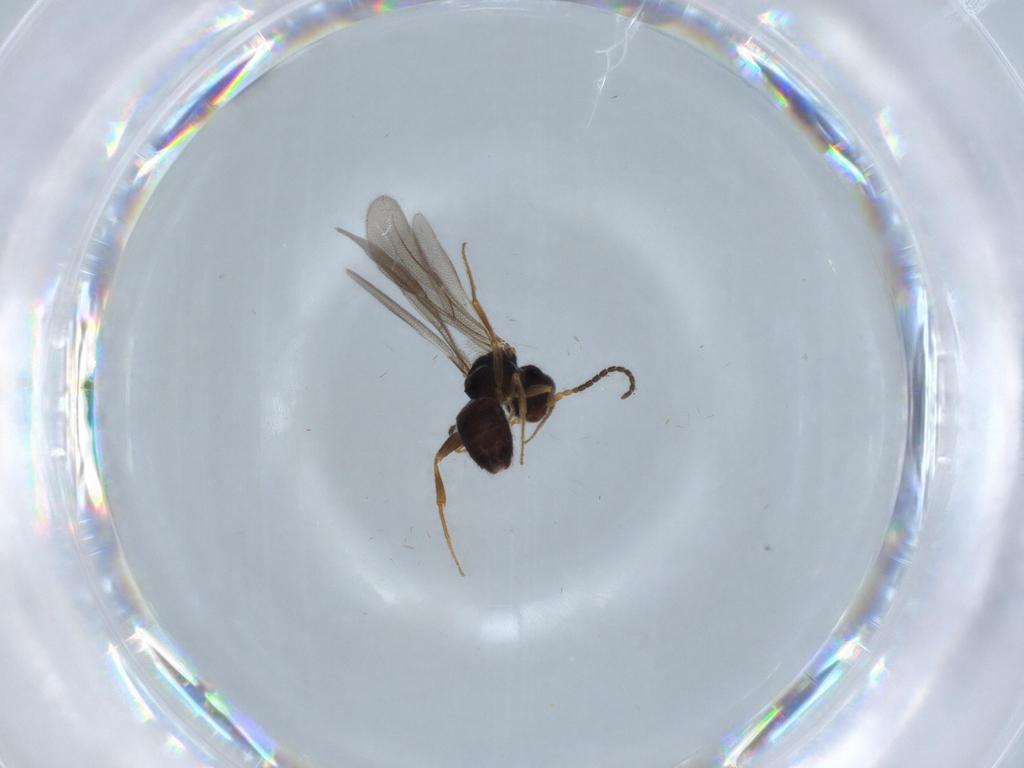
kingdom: Animalia
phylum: Arthropoda
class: Insecta
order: Hymenoptera
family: Bethylidae
